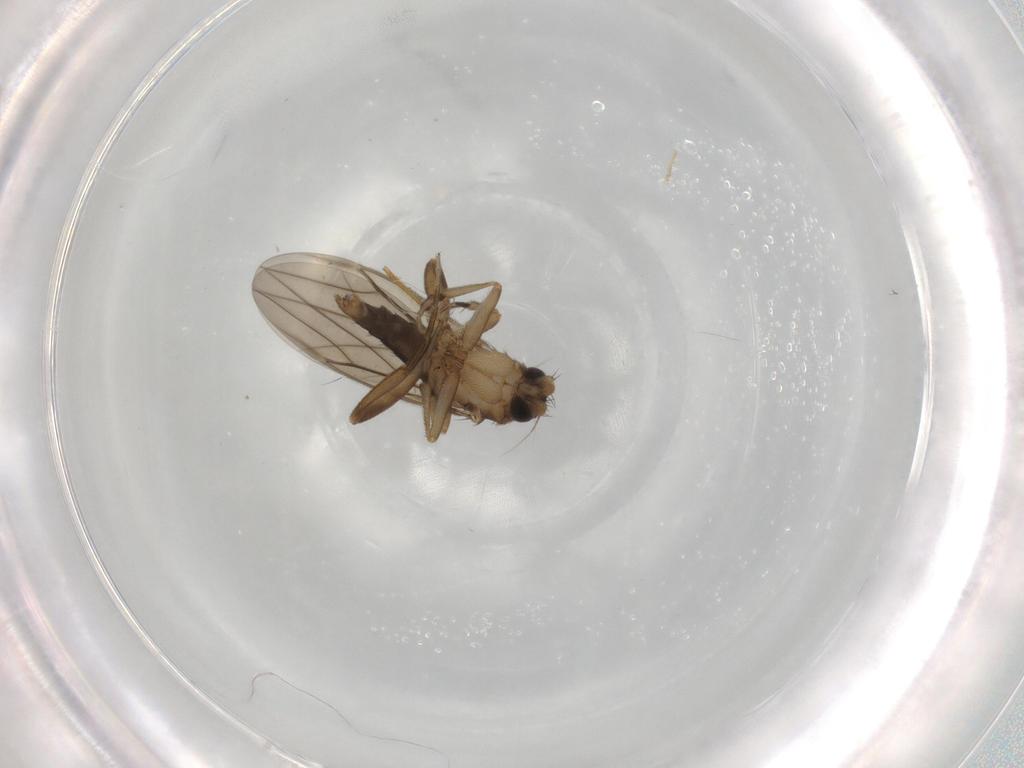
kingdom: Animalia
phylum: Arthropoda
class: Insecta
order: Diptera
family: Phoridae
